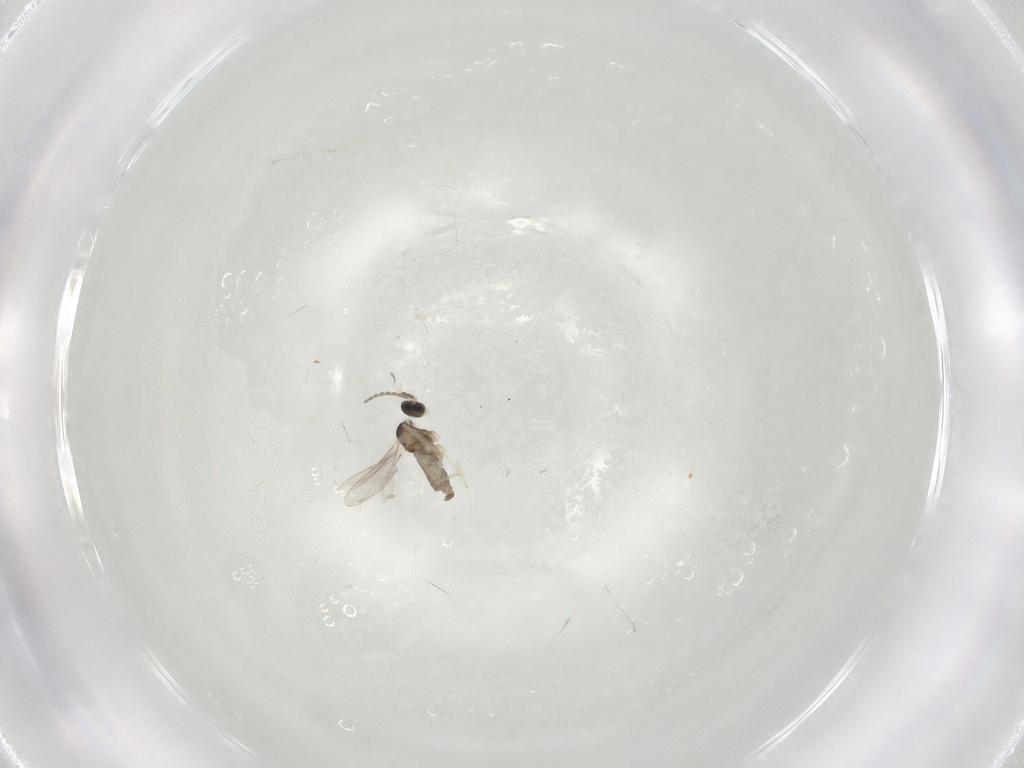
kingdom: Animalia
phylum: Arthropoda
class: Insecta
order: Diptera
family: Cecidomyiidae
